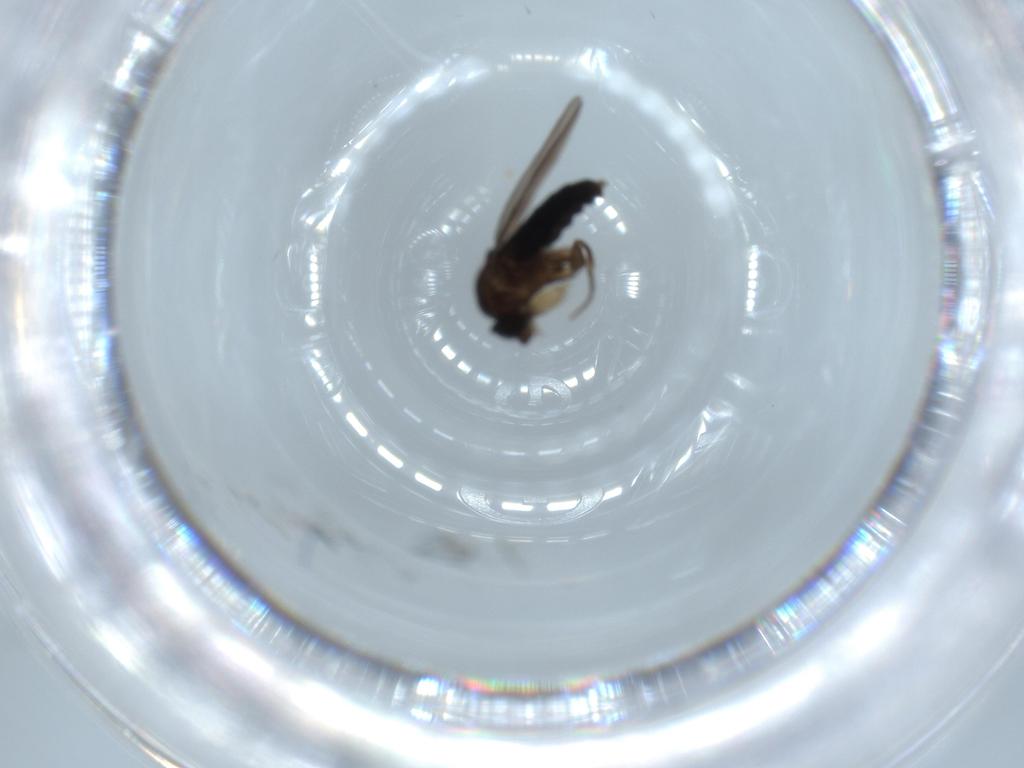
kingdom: Animalia
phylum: Arthropoda
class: Insecta
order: Diptera
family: Phoridae
